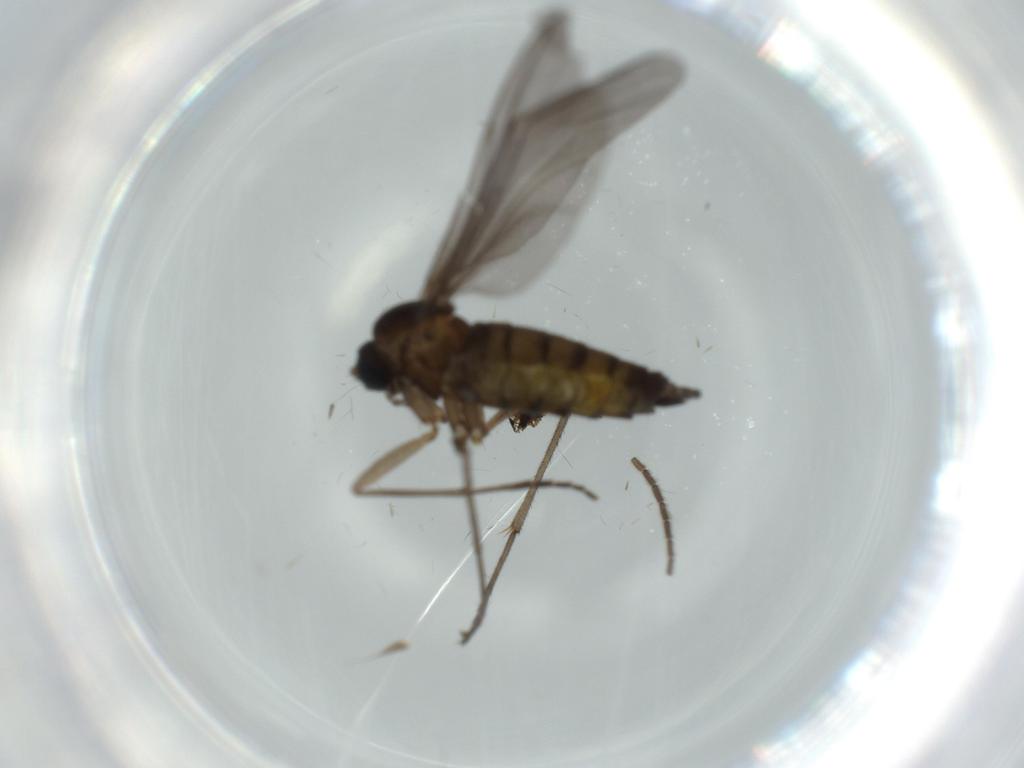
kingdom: Animalia
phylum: Arthropoda
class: Insecta
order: Diptera
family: Sciaridae
